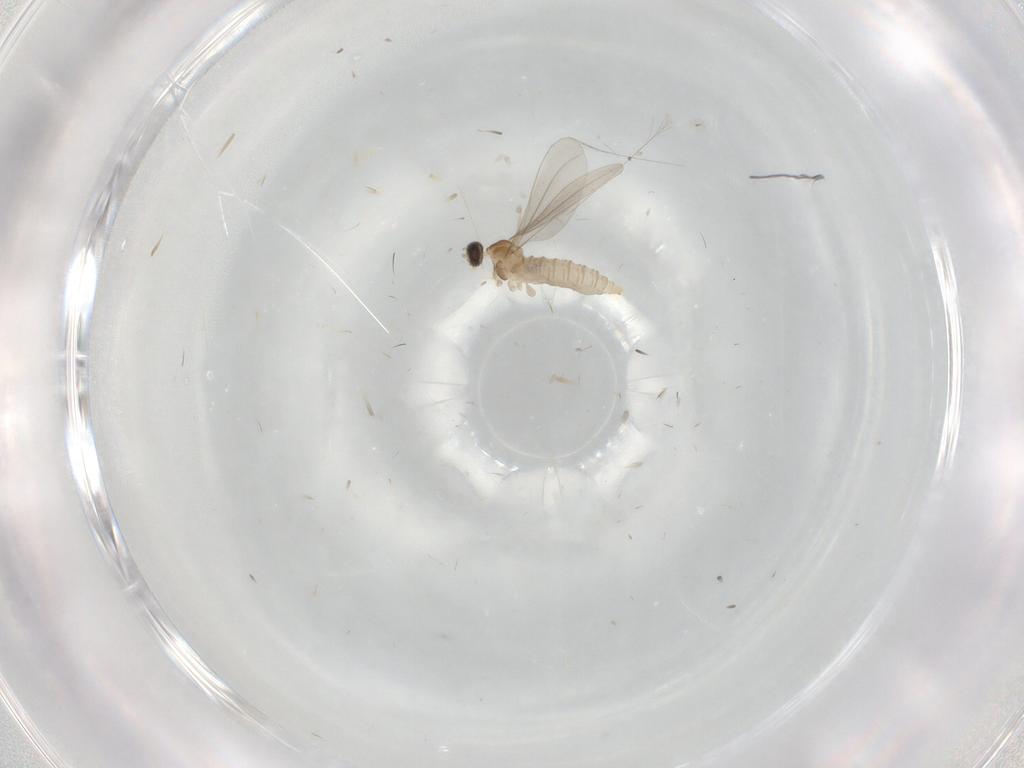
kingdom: Animalia
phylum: Arthropoda
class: Insecta
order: Diptera
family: Cecidomyiidae
